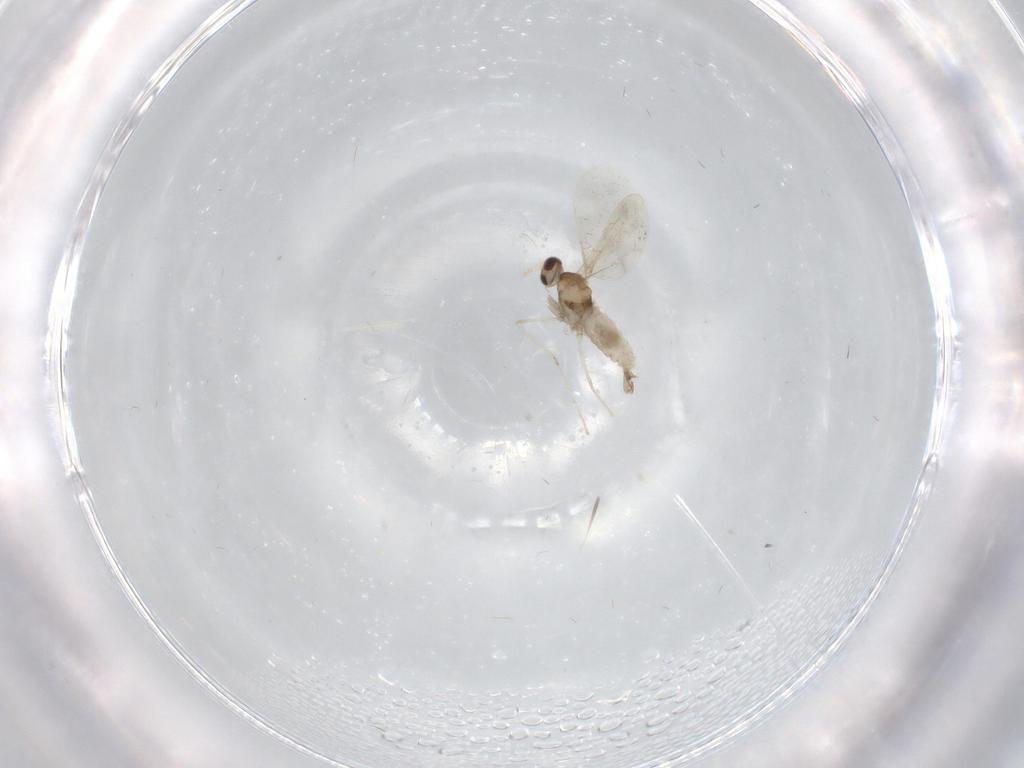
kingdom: Animalia
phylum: Arthropoda
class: Insecta
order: Diptera
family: Cecidomyiidae
